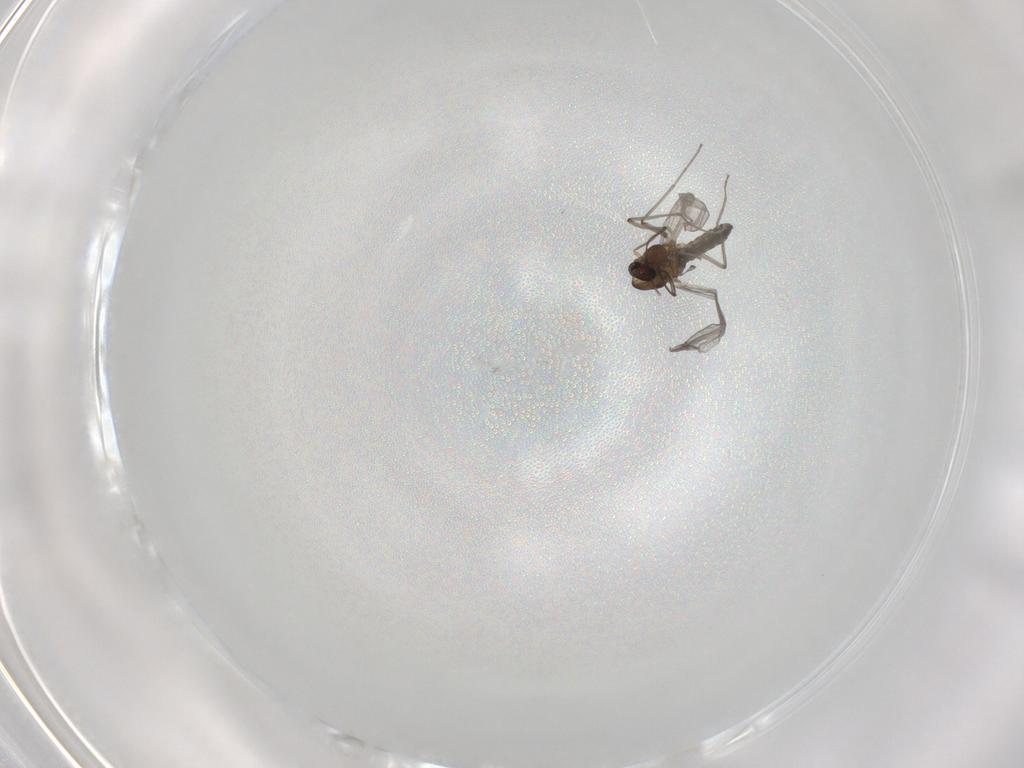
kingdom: Animalia
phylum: Arthropoda
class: Insecta
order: Diptera
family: Chironomidae
